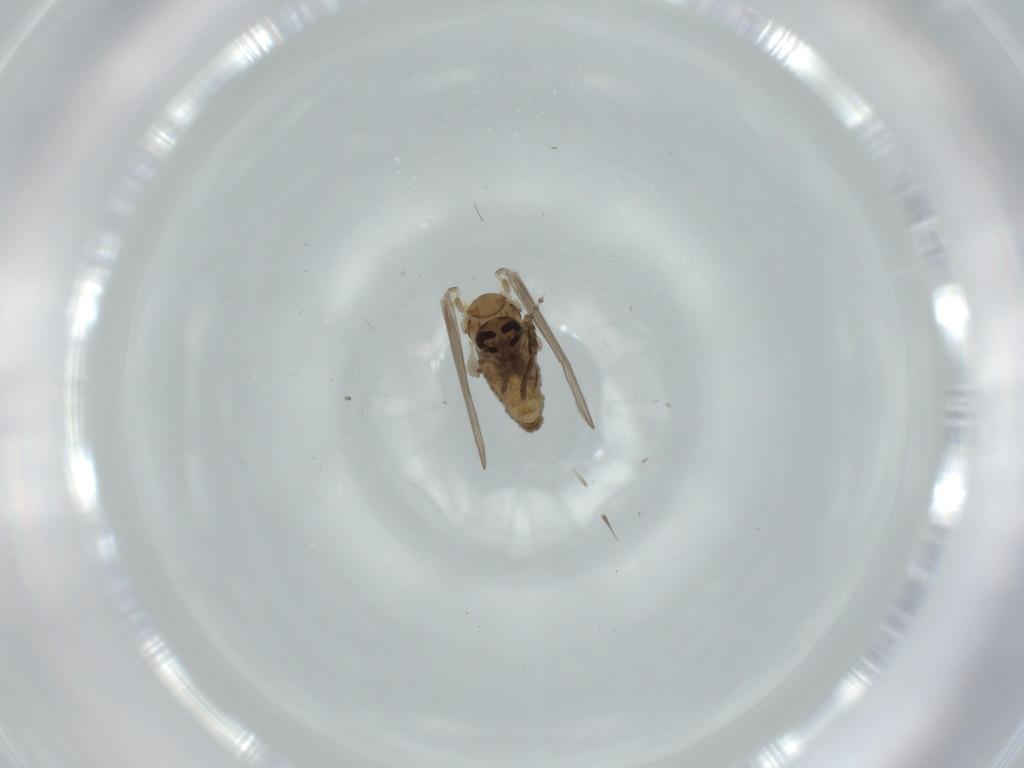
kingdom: Animalia
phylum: Arthropoda
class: Insecta
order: Diptera
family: Psychodidae
